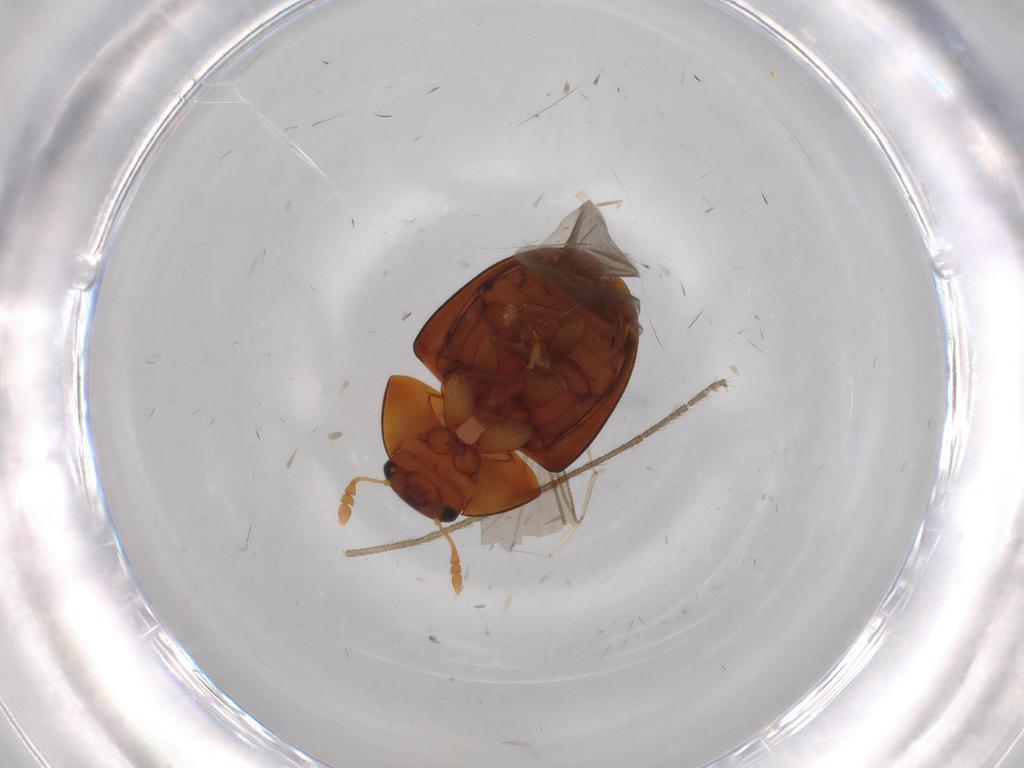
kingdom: Animalia
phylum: Arthropoda
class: Insecta
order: Coleoptera
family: Phalacridae
